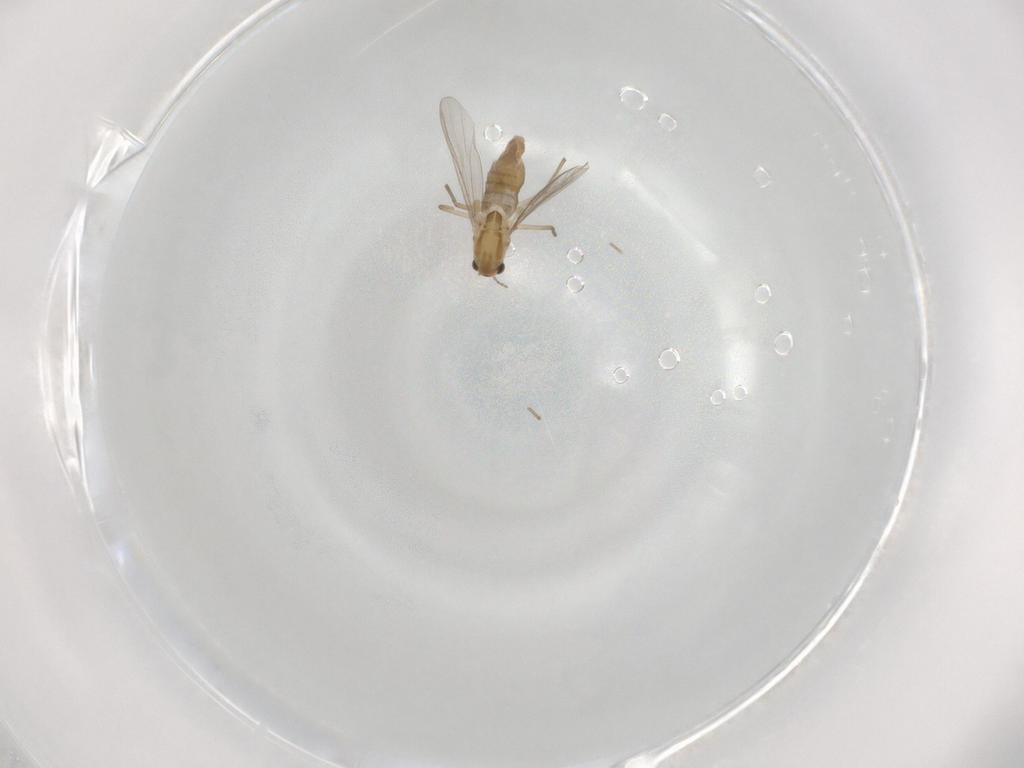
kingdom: Animalia
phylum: Arthropoda
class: Insecta
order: Diptera
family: Chironomidae
